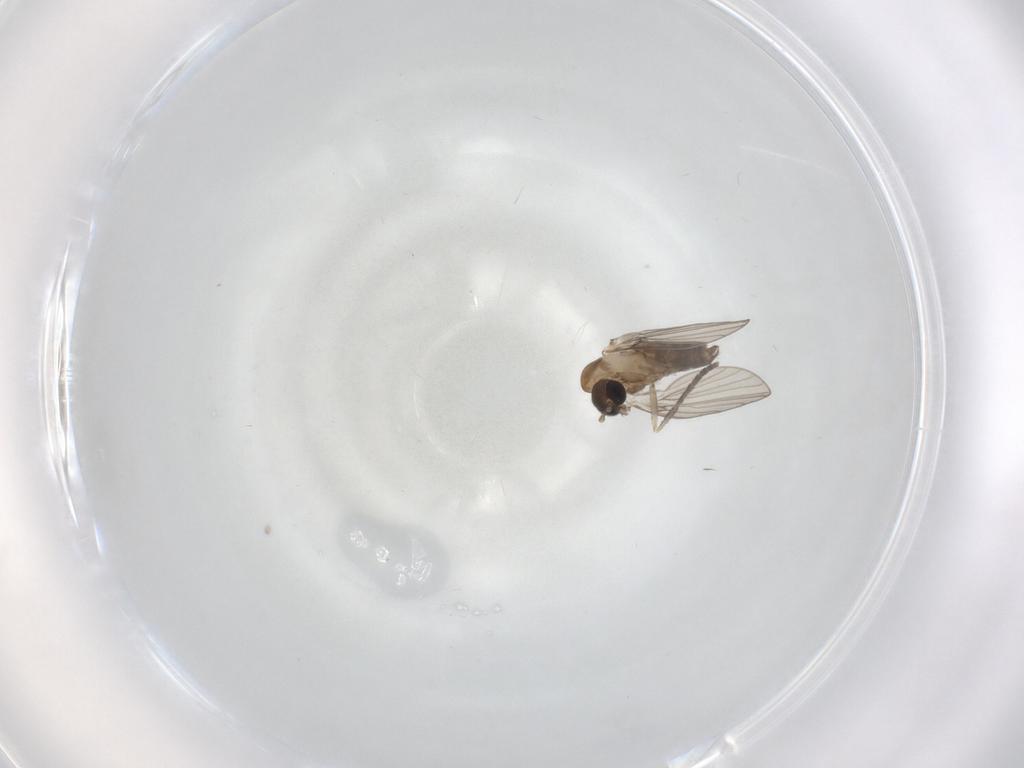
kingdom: Animalia
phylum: Arthropoda
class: Insecta
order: Diptera
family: Psychodidae
